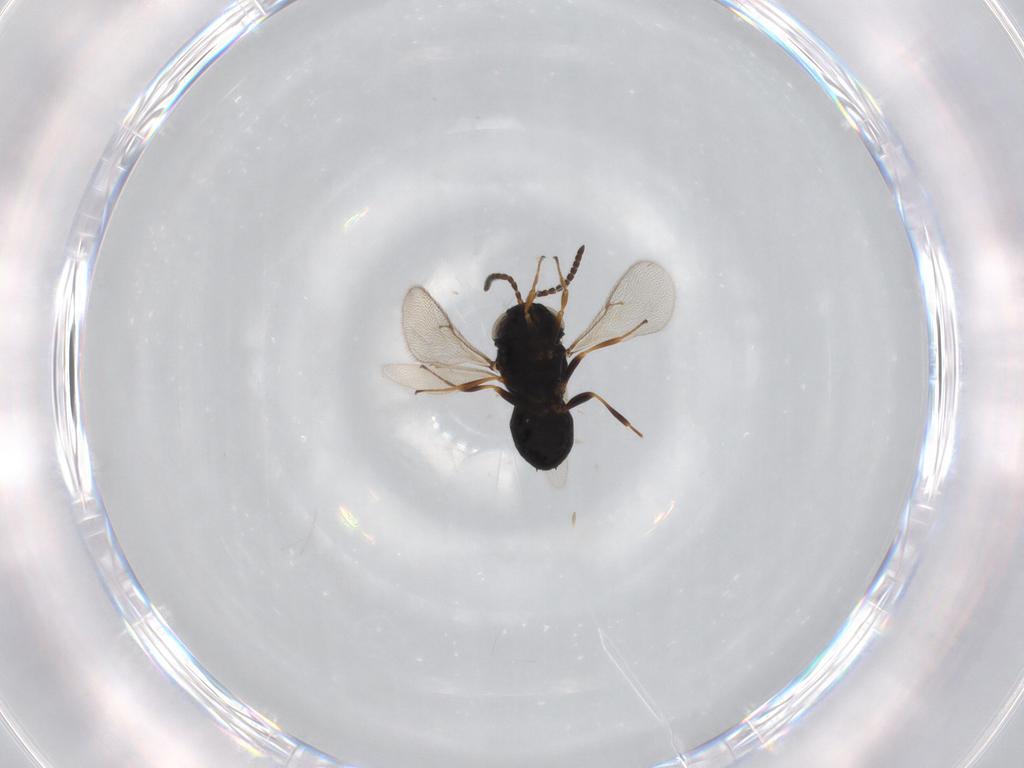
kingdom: Animalia
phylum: Arthropoda
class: Insecta
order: Hymenoptera
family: Scelionidae
